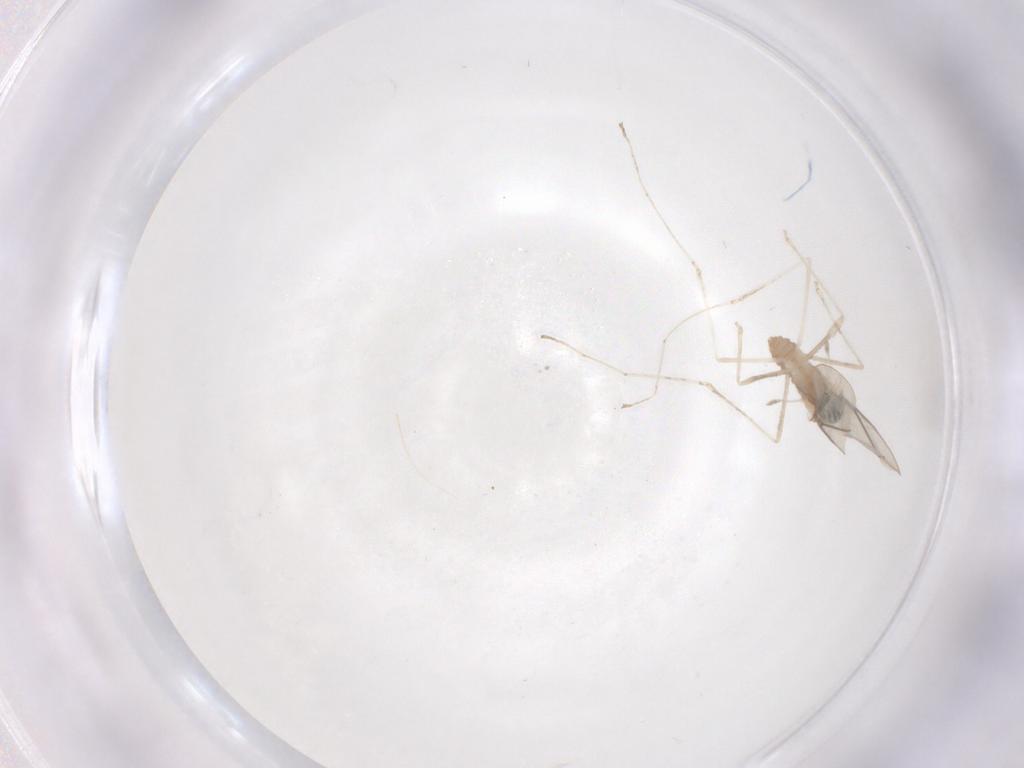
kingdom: Animalia
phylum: Arthropoda
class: Insecta
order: Diptera
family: Cecidomyiidae
